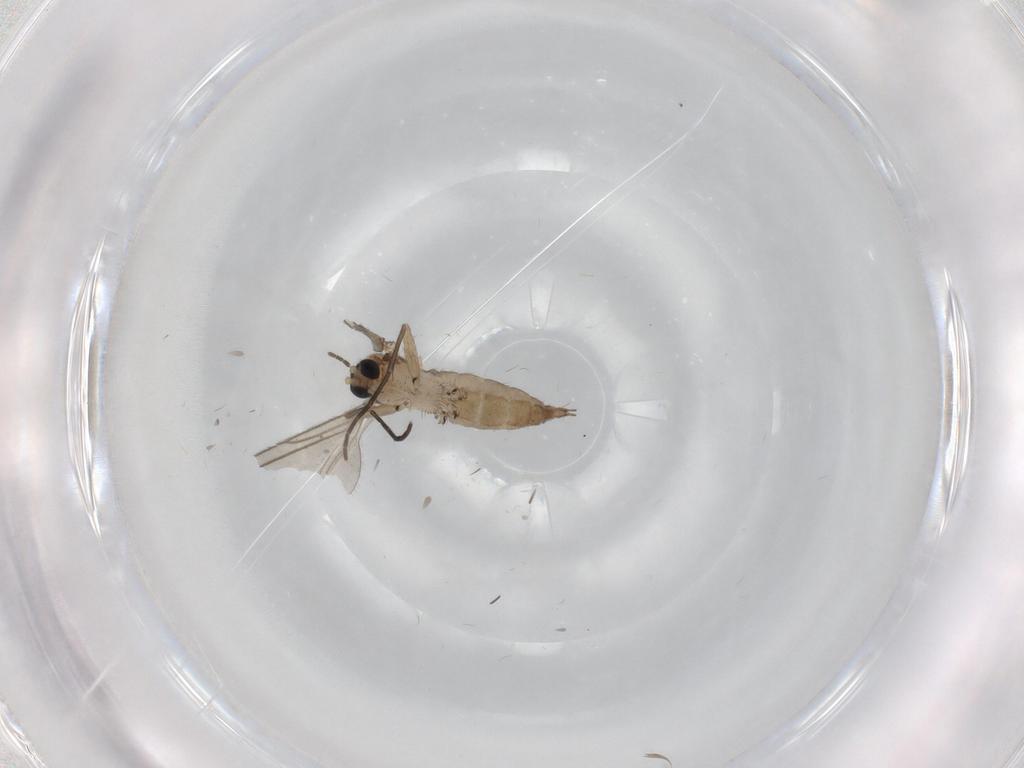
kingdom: Animalia
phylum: Arthropoda
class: Insecta
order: Diptera
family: Sciaridae
